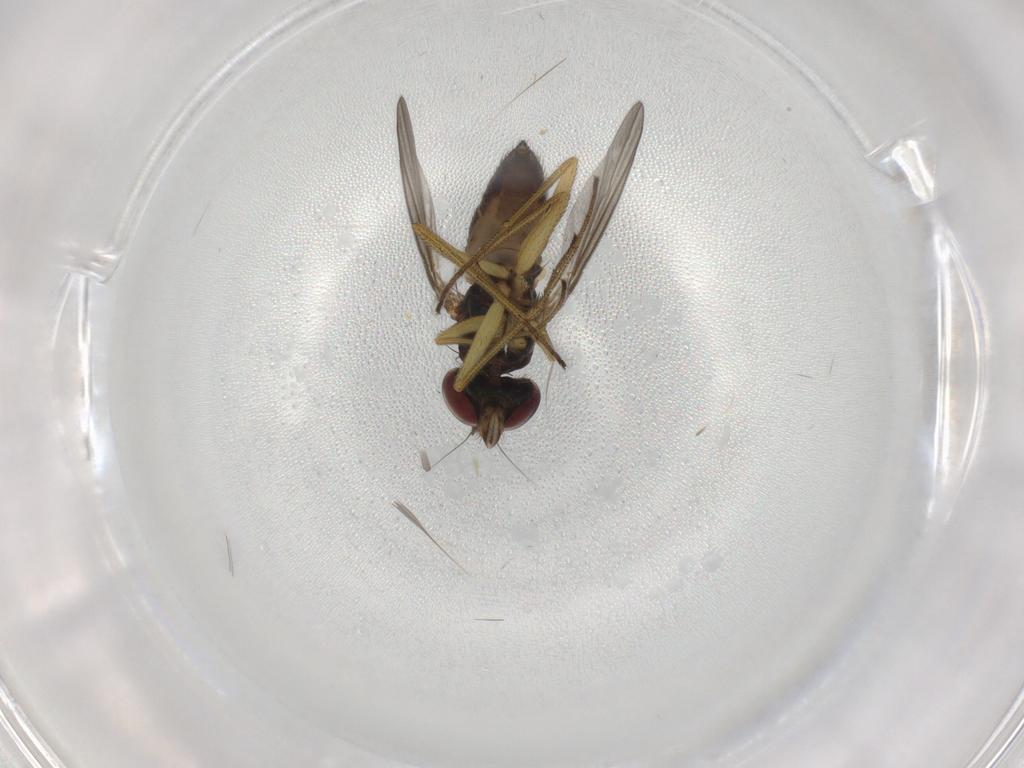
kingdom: Animalia
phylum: Arthropoda
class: Insecta
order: Diptera
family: Dolichopodidae
